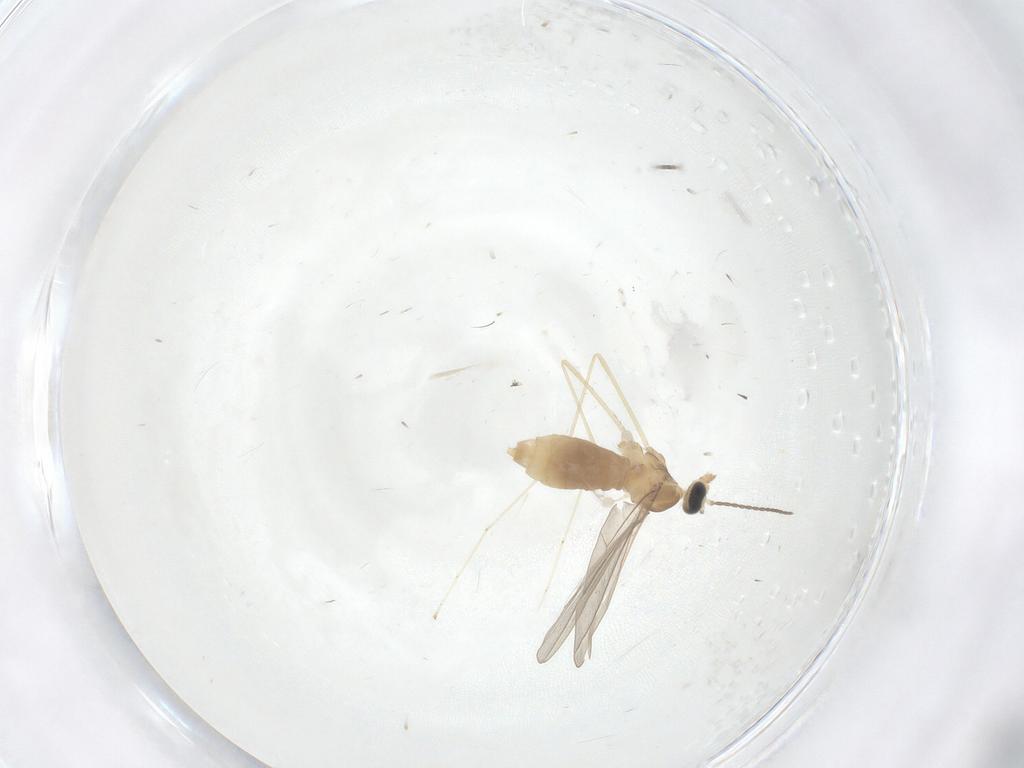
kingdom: Animalia
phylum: Arthropoda
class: Insecta
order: Diptera
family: Cecidomyiidae
